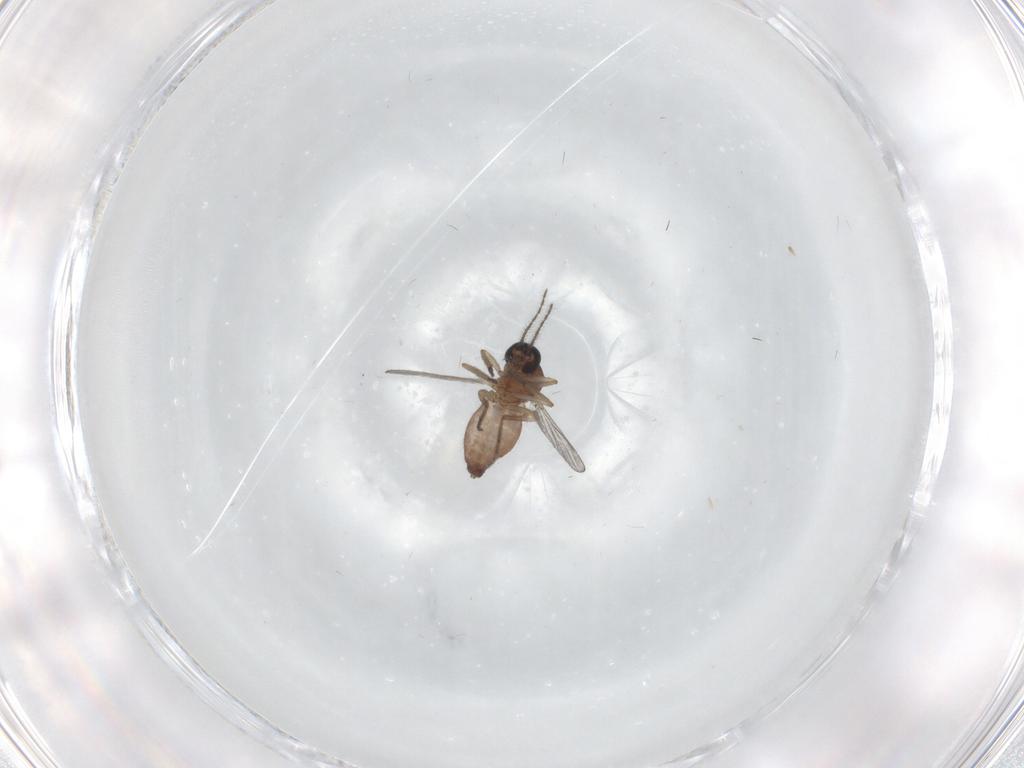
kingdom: Animalia
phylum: Arthropoda
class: Insecta
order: Diptera
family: Ceratopogonidae
